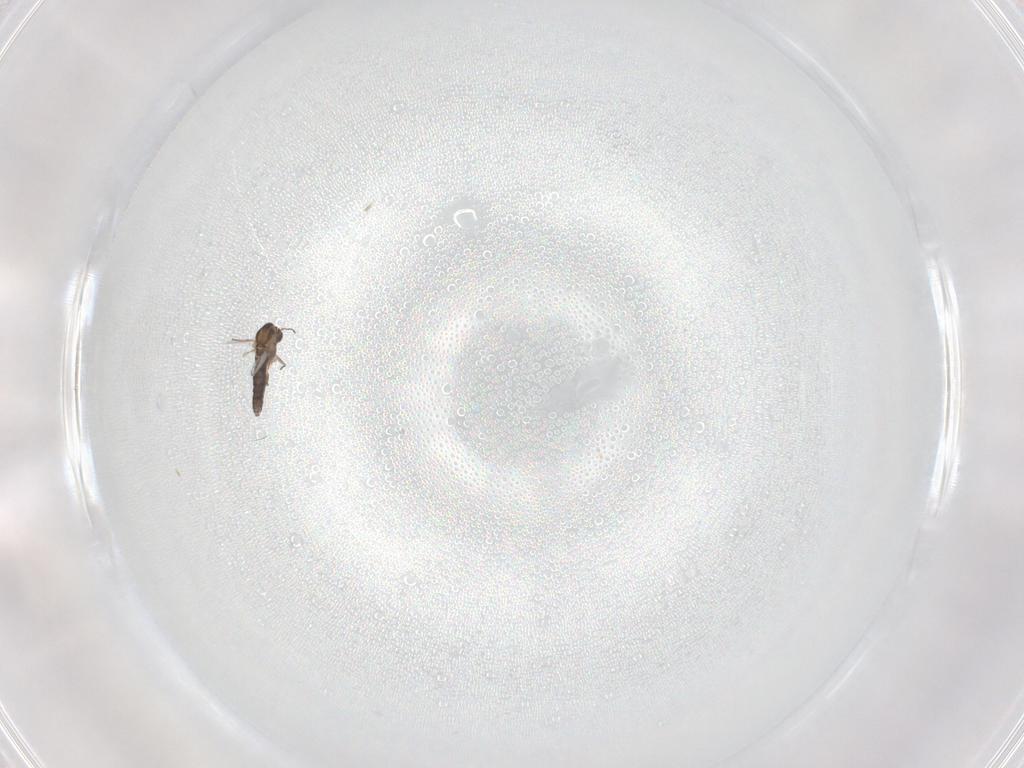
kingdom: Animalia
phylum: Arthropoda
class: Insecta
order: Diptera
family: Chironomidae
